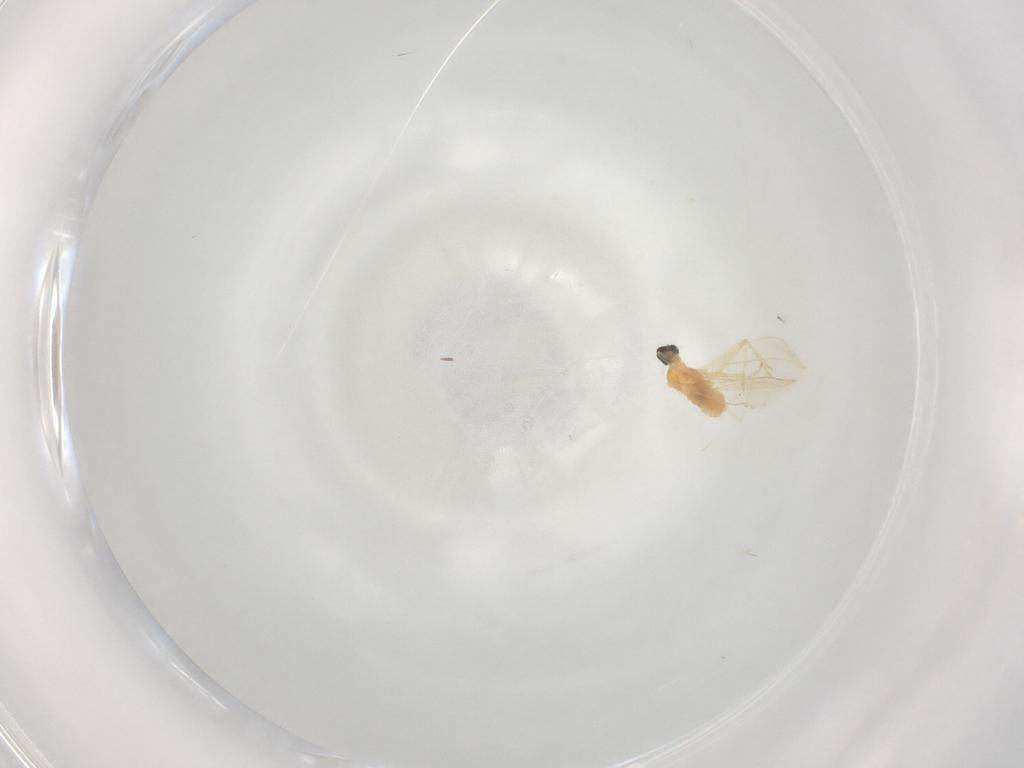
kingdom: Animalia
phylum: Arthropoda
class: Insecta
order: Diptera
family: Cecidomyiidae
